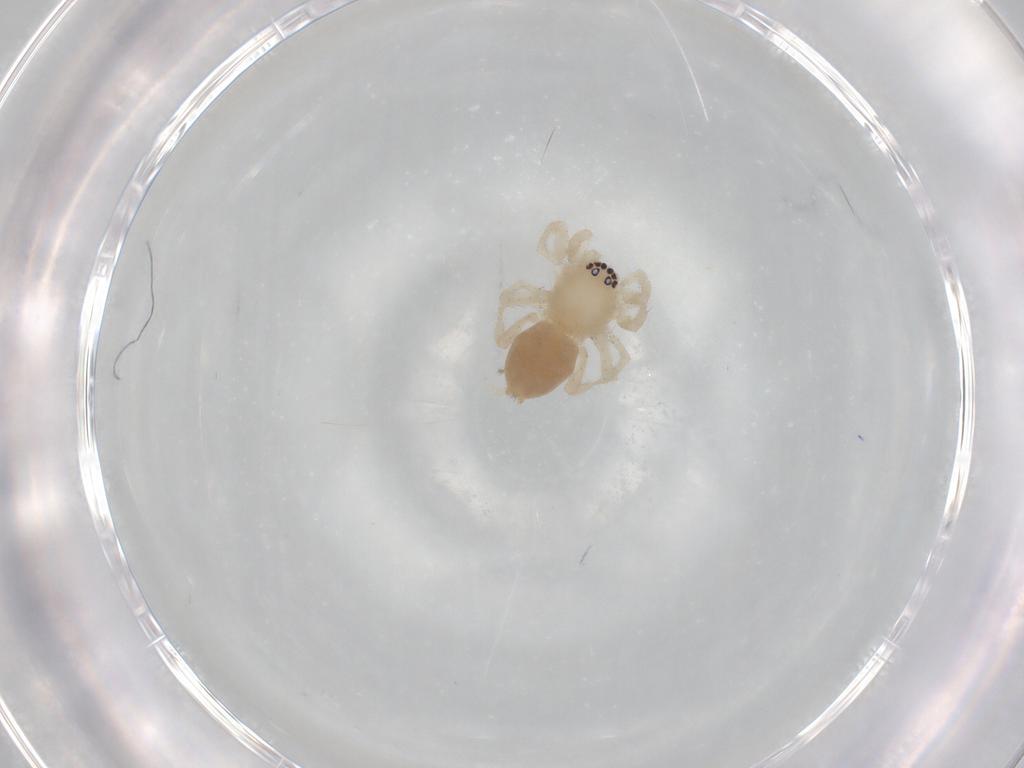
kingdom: Animalia
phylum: Arthropoda
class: Arachnida
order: Araneae
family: Clubionidae
